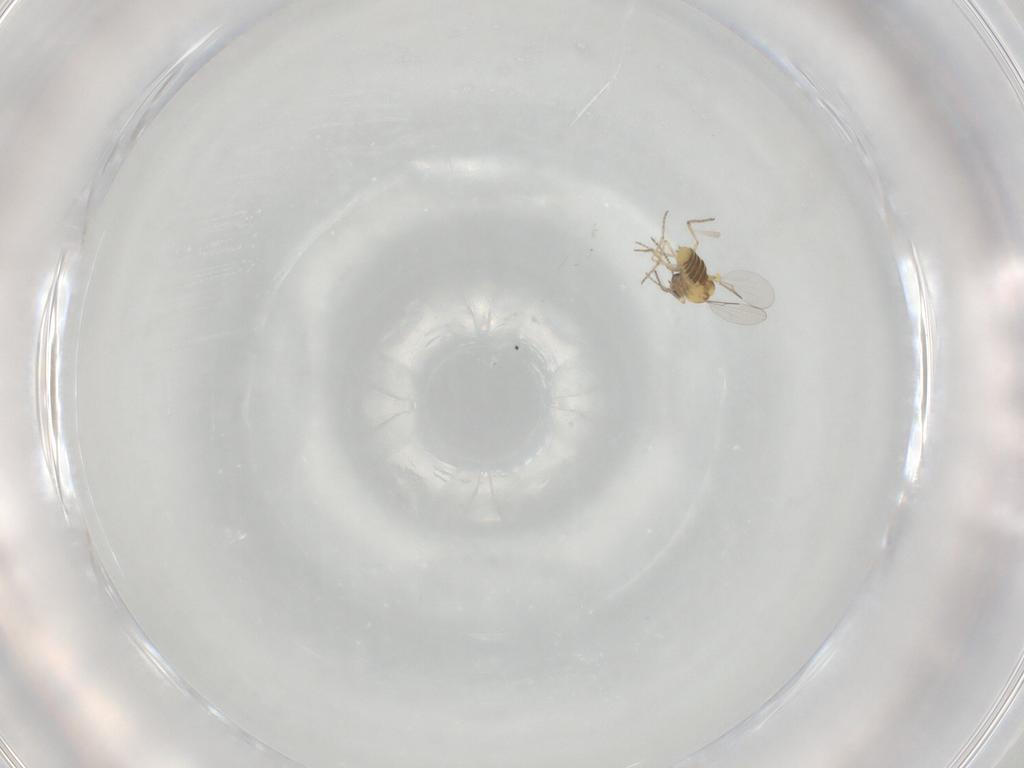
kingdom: Animalia
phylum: Arthropoda
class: Insecta
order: Diptera
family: Ceratopogonidae
